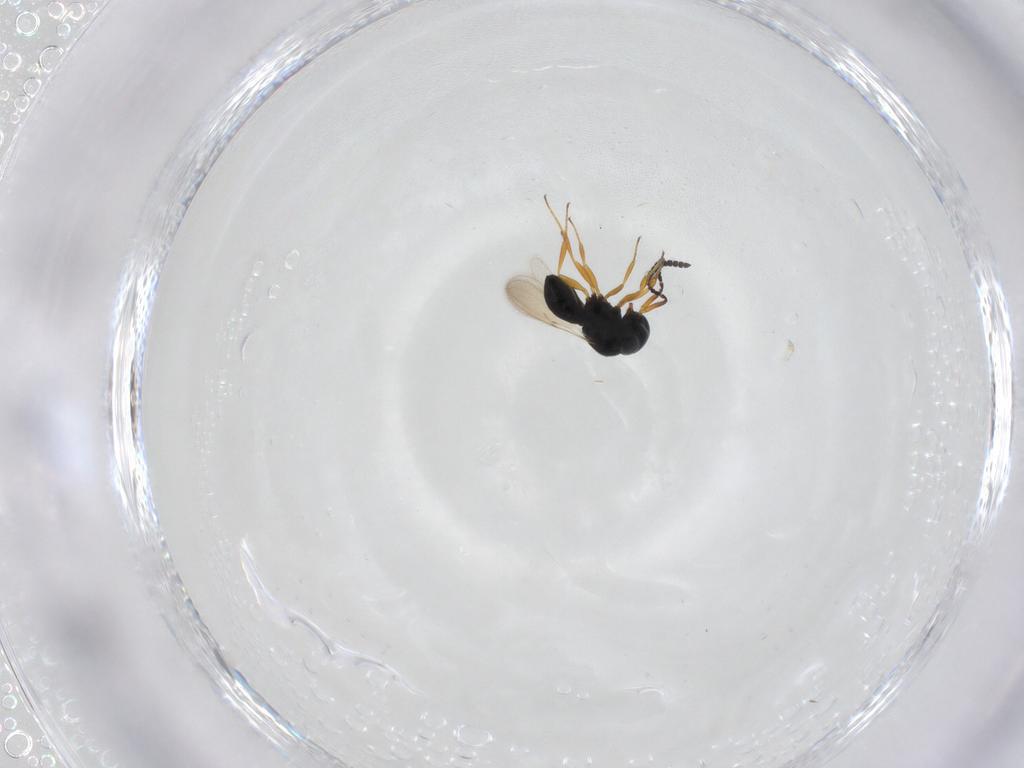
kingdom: Animalia
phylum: Arthropoda
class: Insecta
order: Hymenoptera
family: Scelionidae
